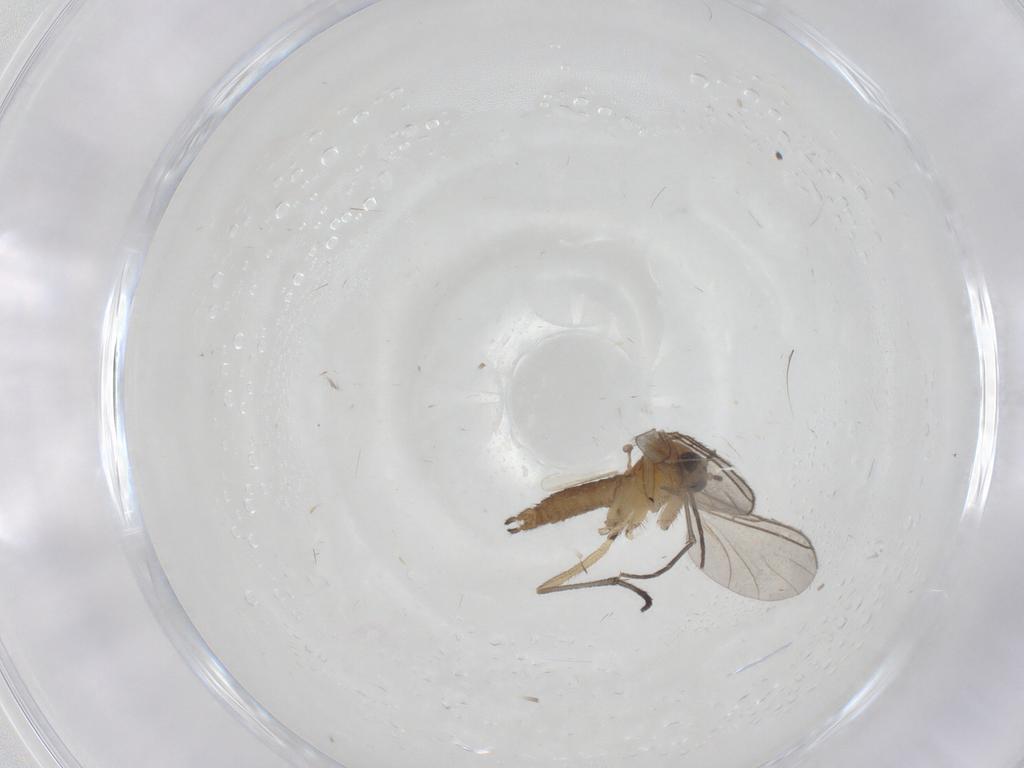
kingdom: Animalia
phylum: Arthropoda
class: Insecta
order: Diptera
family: Sciaridae
